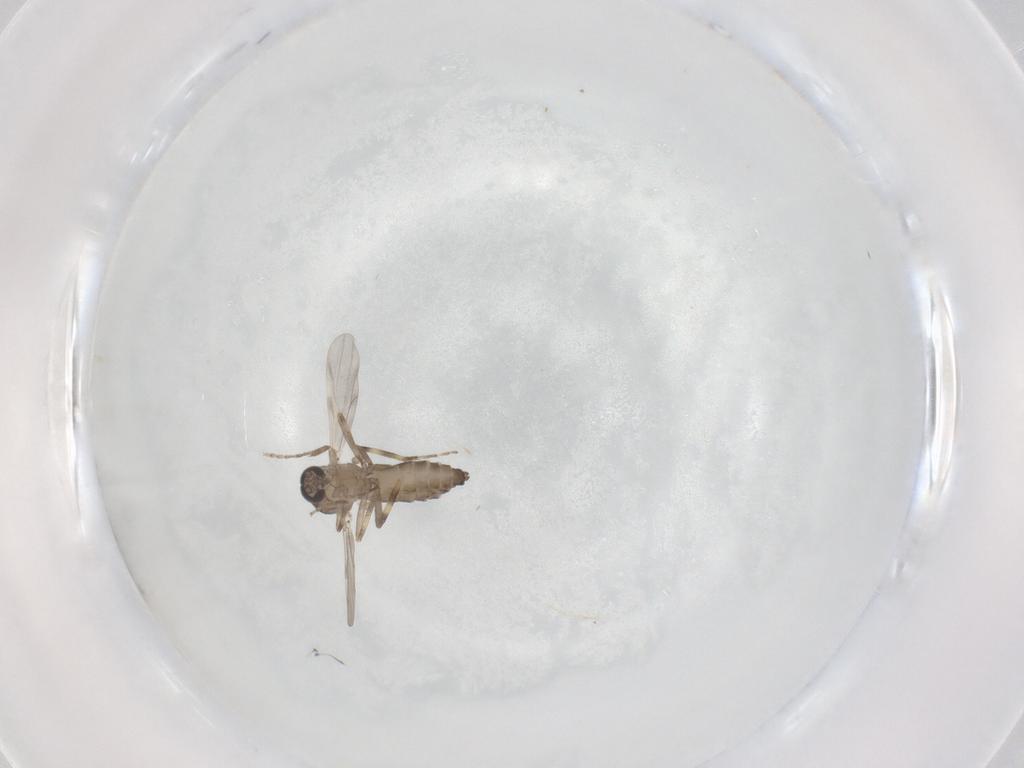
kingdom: Animalia
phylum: Arthropoda
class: Insecta
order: Diptera
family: Ceratopogonidae
